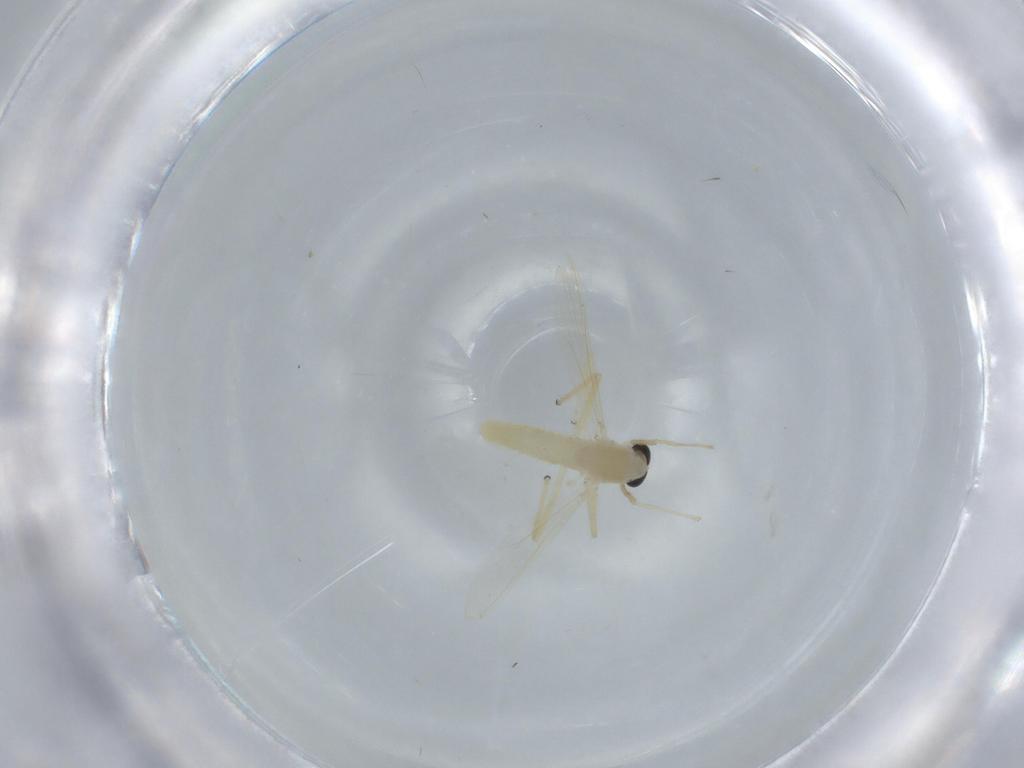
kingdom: Animalia
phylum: Arthropoda
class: Insecta
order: Diptera
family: Chironomidae
